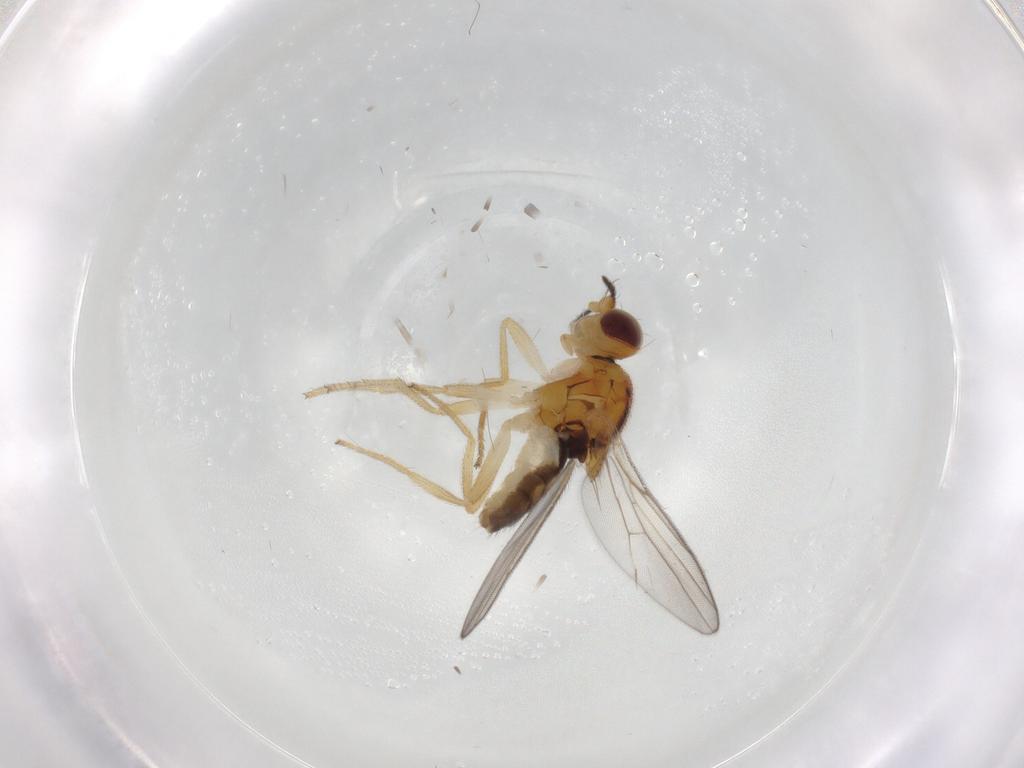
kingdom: Animalia
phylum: Arthropoda
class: Insecta
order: Diptera
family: Chloropidae
